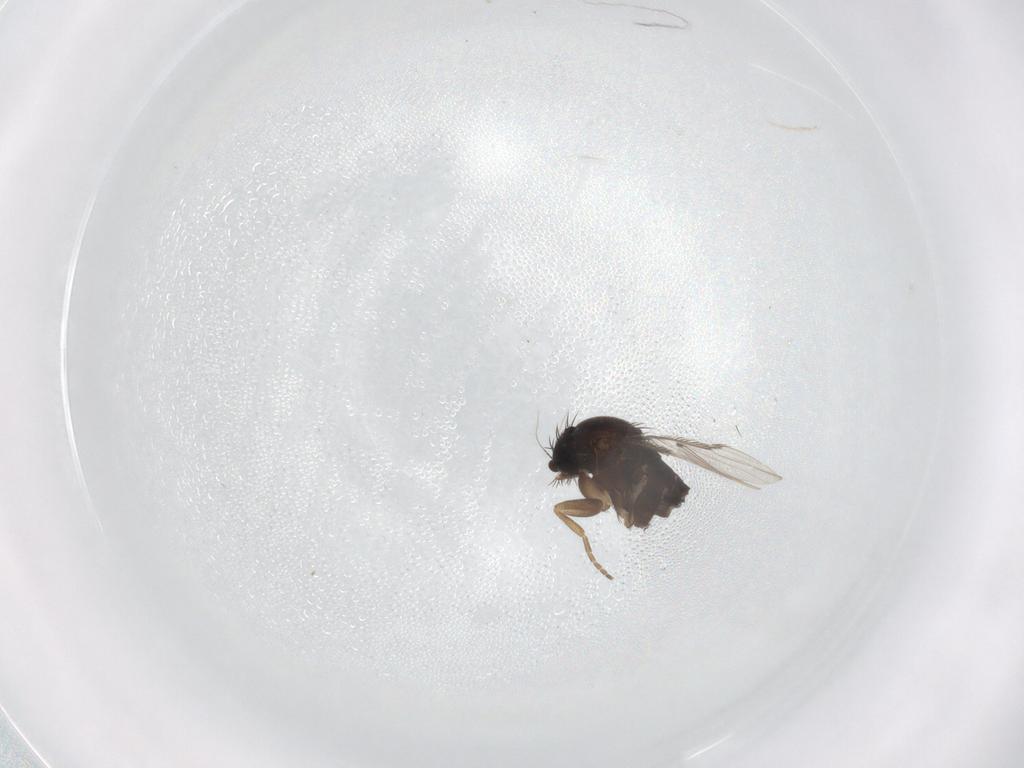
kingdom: Animalia
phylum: Arthropoda
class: Insecta
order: Diptera
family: Phoridae
